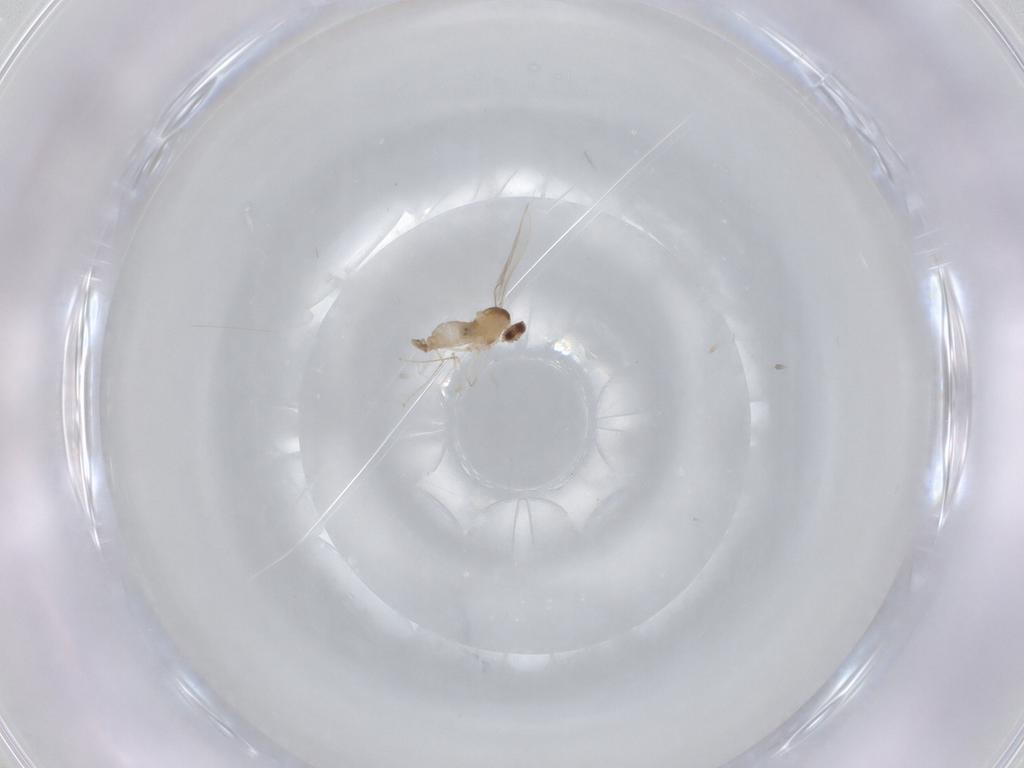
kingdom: Animalia
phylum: Arthropoda
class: Insecta
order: Diptera
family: Cecidomyiidae
